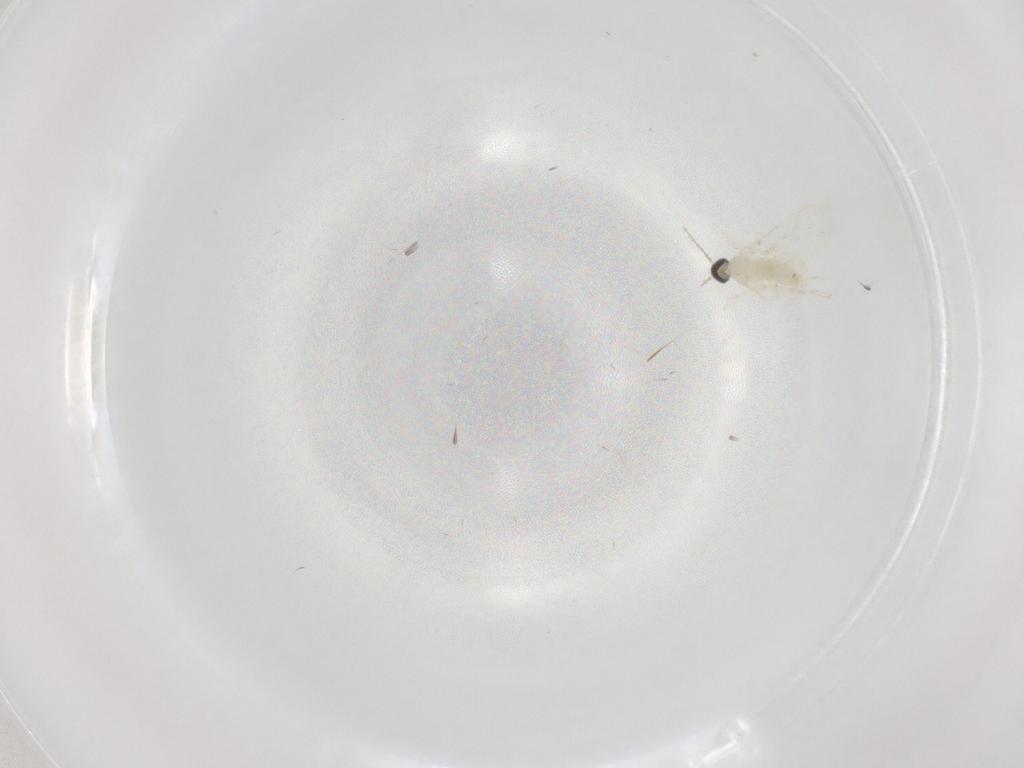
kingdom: Animalia
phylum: Arthropoda
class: Insecta
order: Diptera
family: Cecidomyiidae
